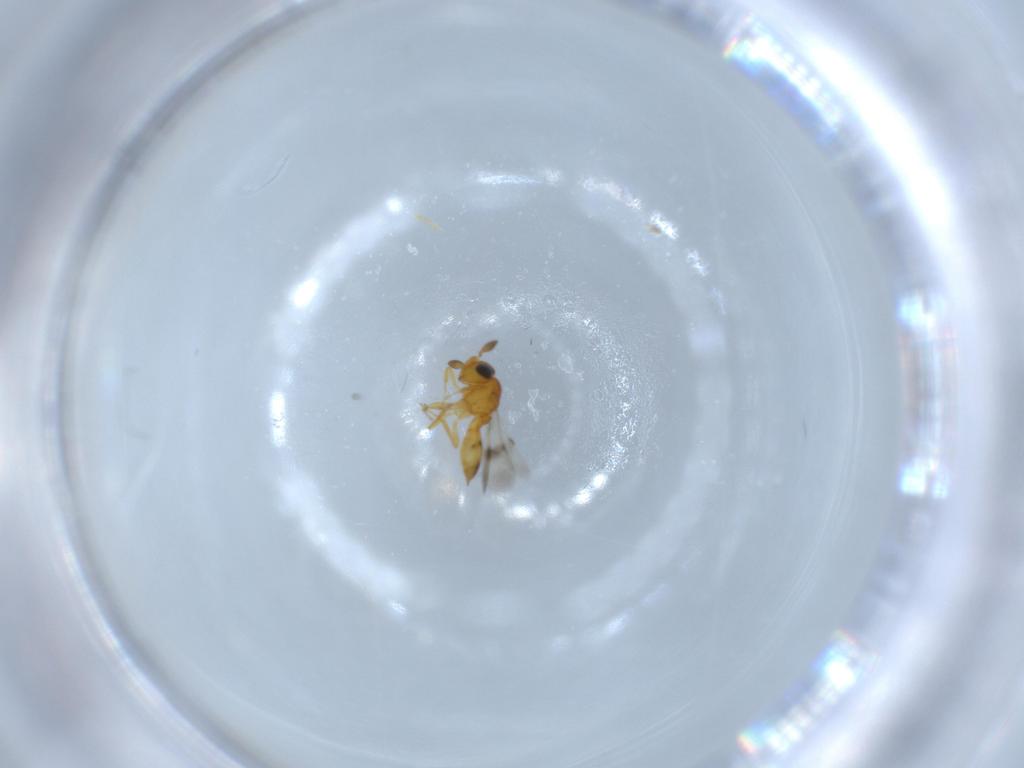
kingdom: Animalia
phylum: Arthropoda
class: Insecta
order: Hymenoptera
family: Scelionidae
